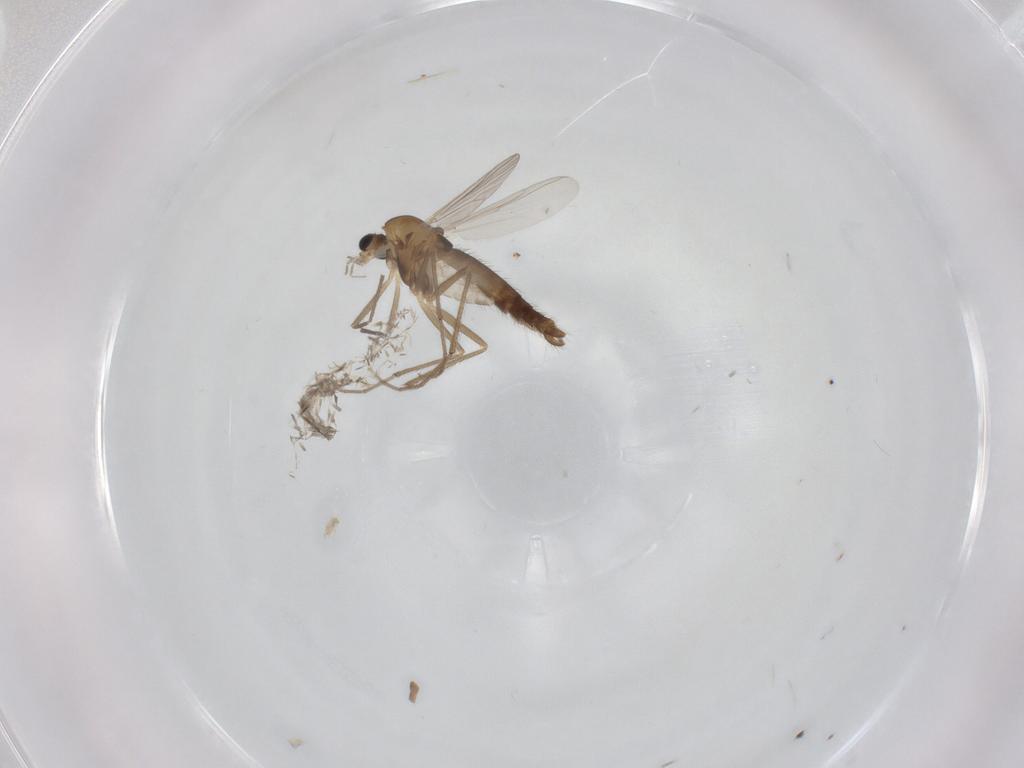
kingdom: Animalia
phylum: Arthropoda
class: Insecta
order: Diptera
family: Chironomidae
